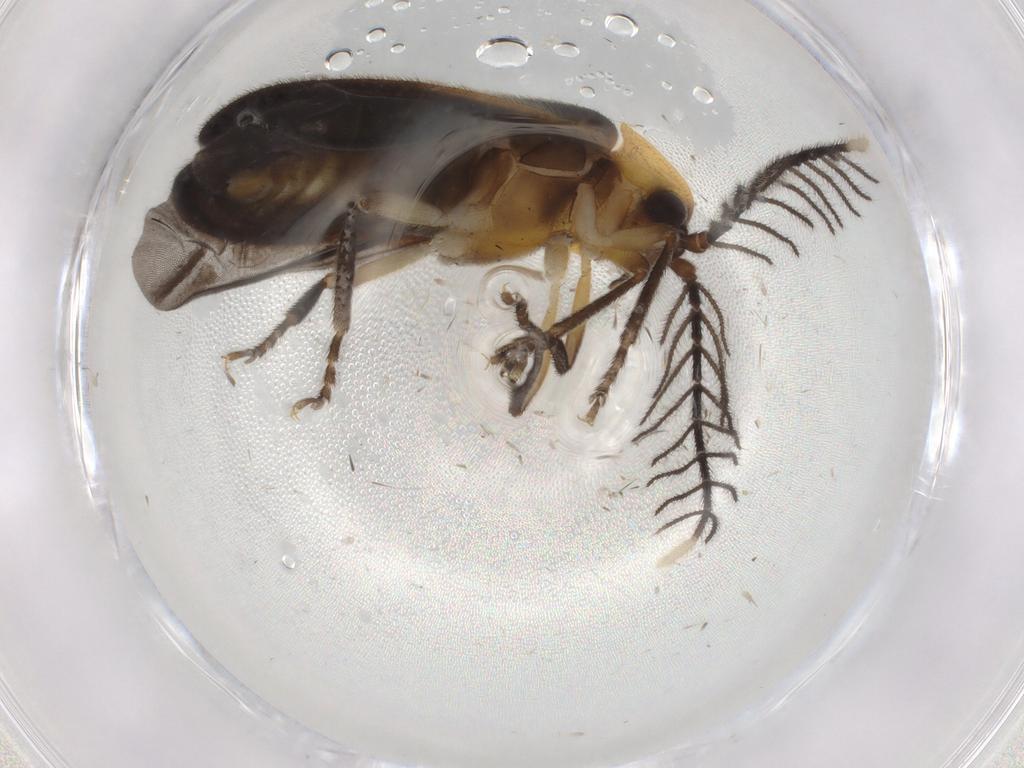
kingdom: Animalia
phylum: Arthropoda
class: Insecta
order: Coleoptera
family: Lampyridae
